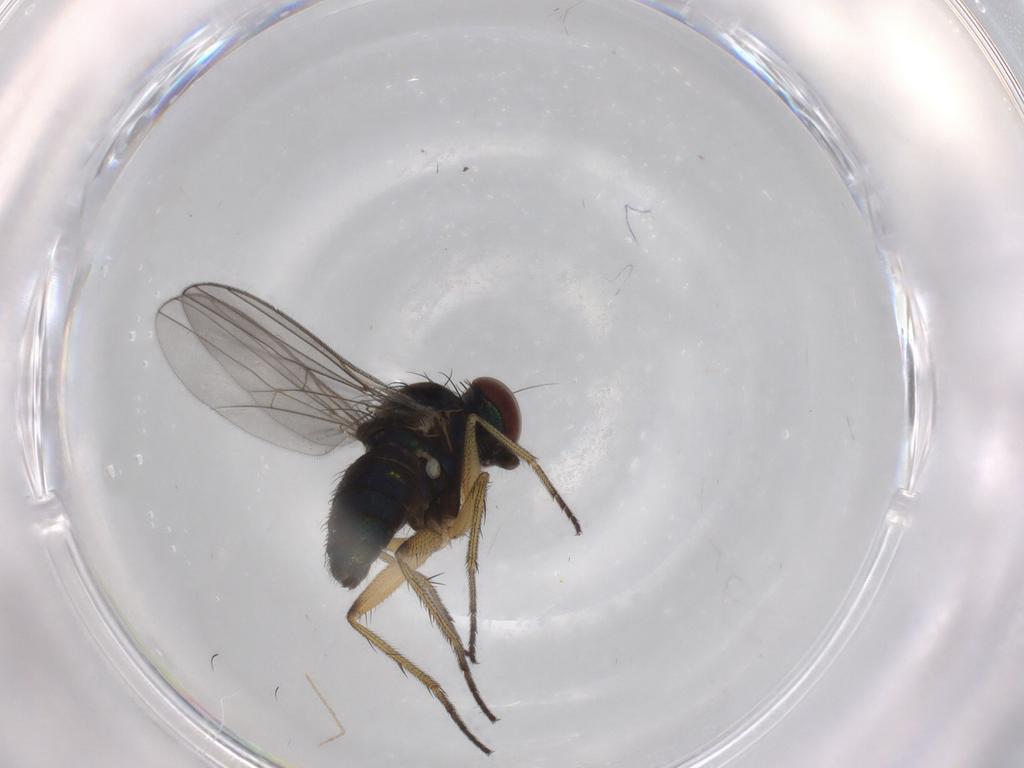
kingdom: Animalia
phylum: Arthropoda
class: Insecta
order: Diptera
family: Dolichopodidae
